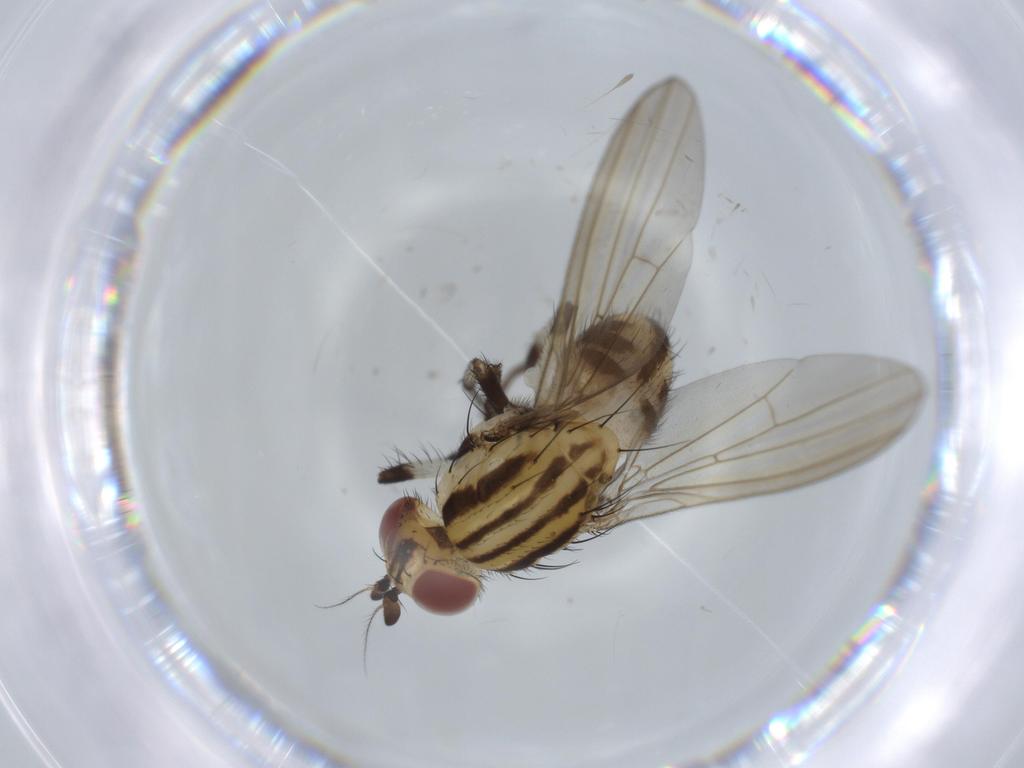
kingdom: Animalia
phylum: Arthropoda
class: Insecta
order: Diptera
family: Lauxaniidae
